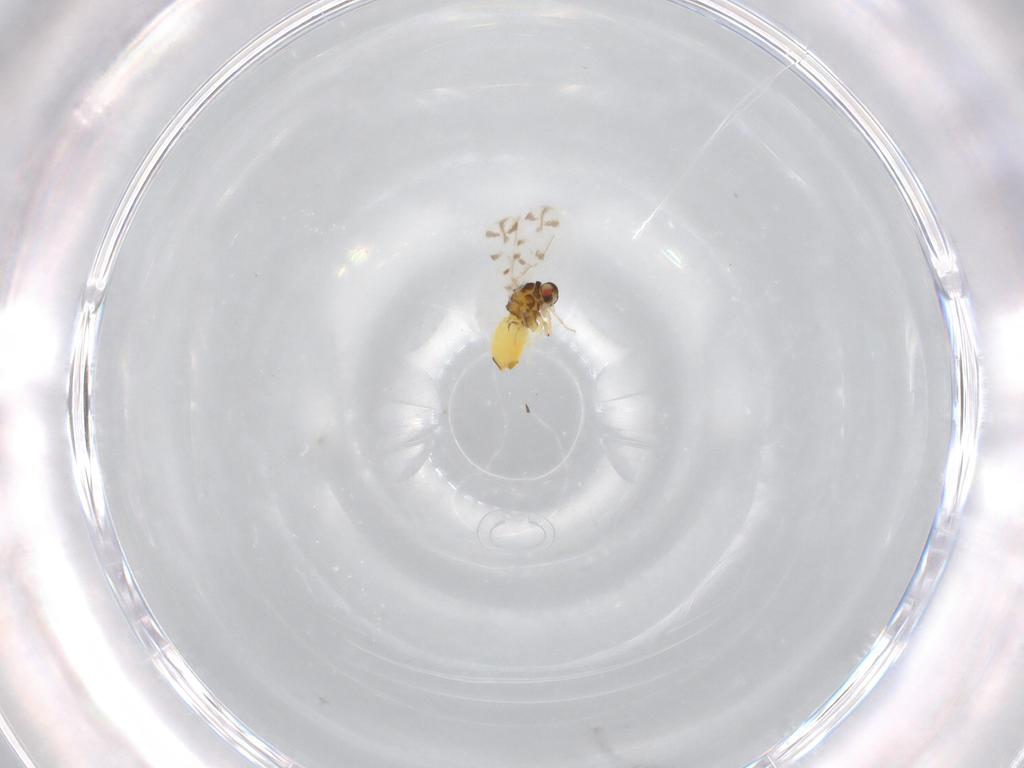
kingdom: Animalia
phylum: Arthropoda
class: Insecta
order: Hemiptera
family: Aleyrodidae
